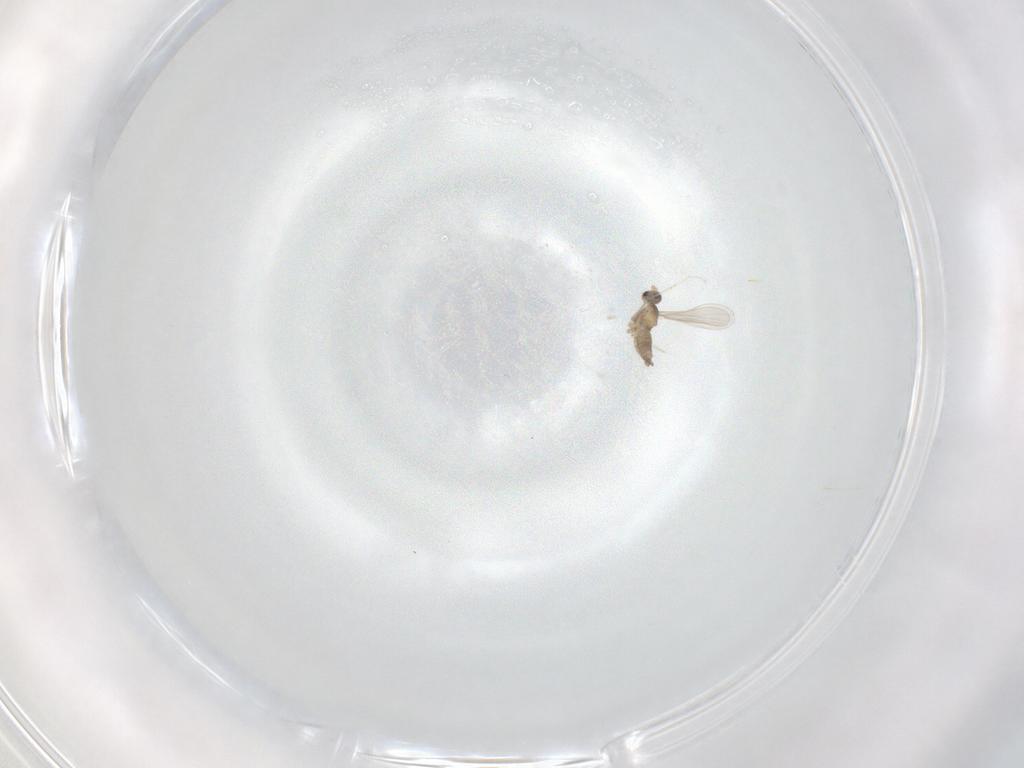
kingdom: Animalia
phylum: Arthropoda
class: Insecta
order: Diptera
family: Cecidomyiidae
